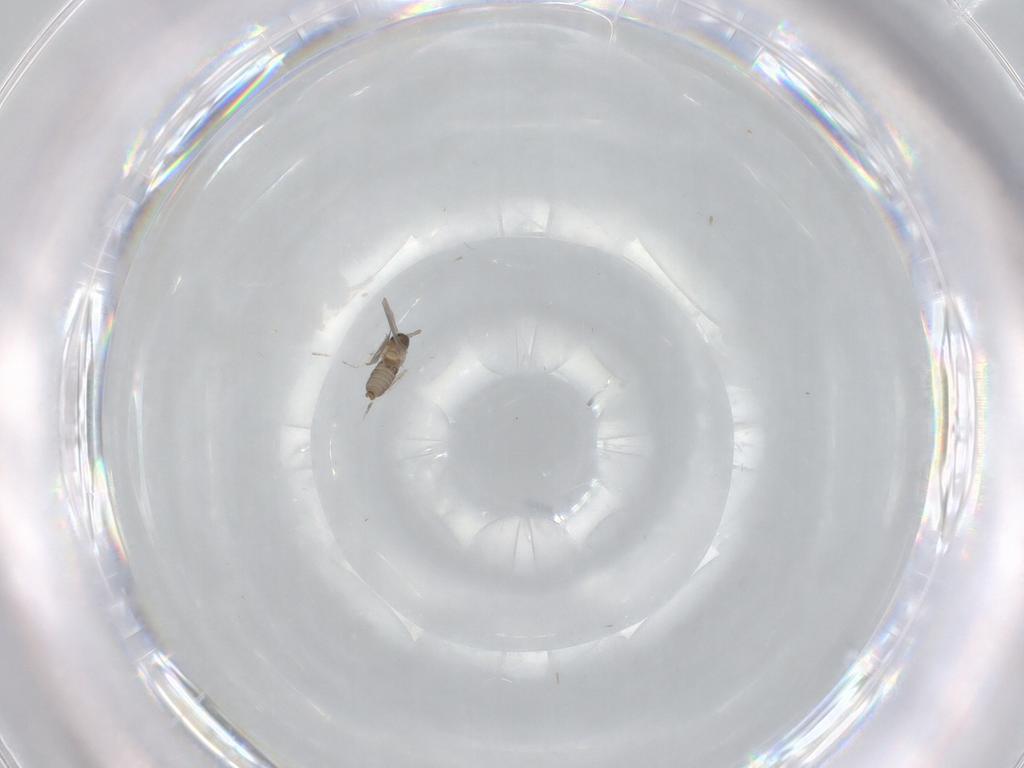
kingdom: Animalia
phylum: Arthropoda
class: Insecta
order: Diptera
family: Cecidomyiidae
